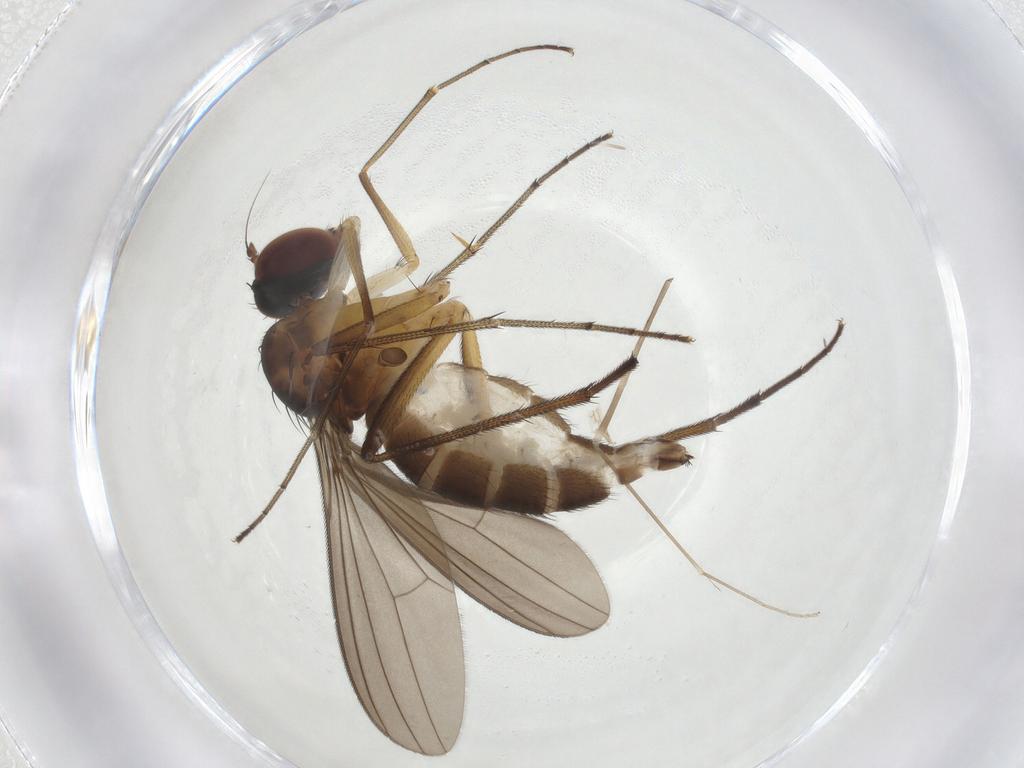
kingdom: Animalia
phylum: Arthropoda
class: Insecta
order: Diptera
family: Dolichopodidae
